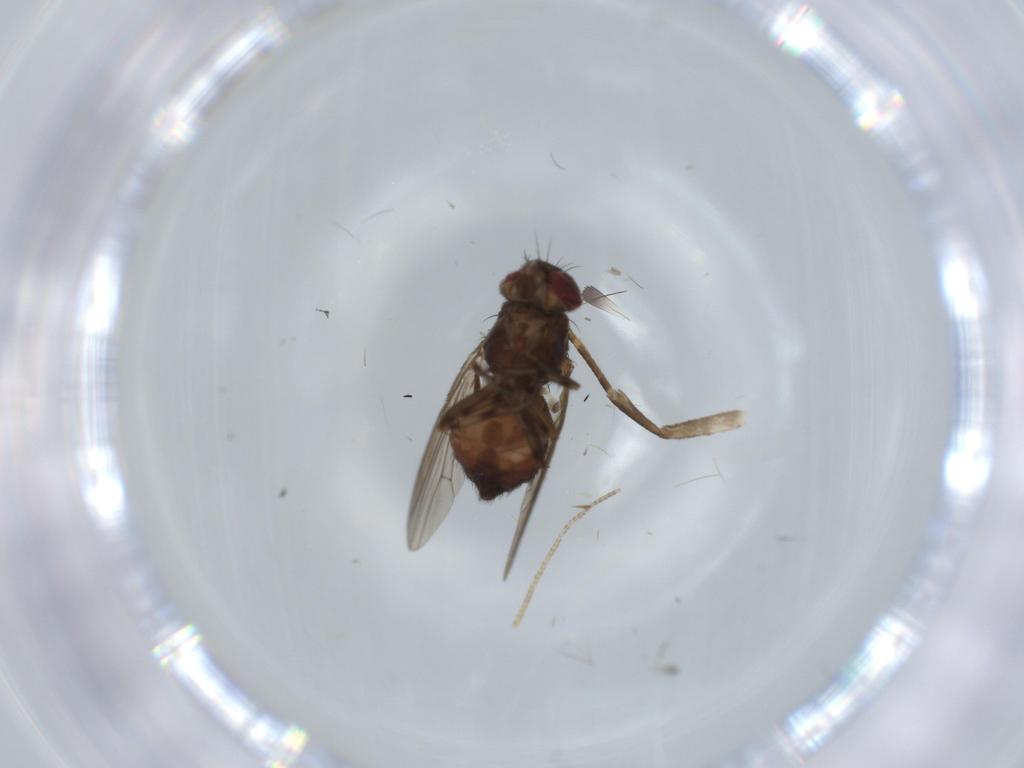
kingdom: Animalia
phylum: Arthropoda
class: Insecta
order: Diptera
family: Heleomyzidae
